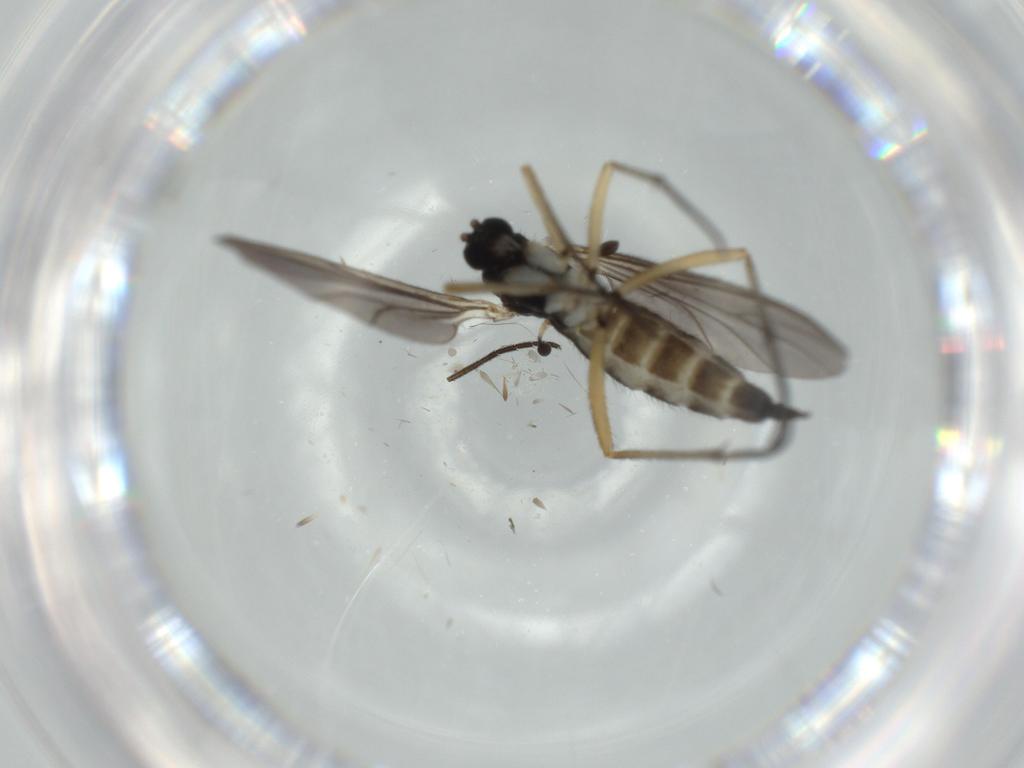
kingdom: Animalia
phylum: Arthropoda
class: Insecta
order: Diptera
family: Sciaridae
